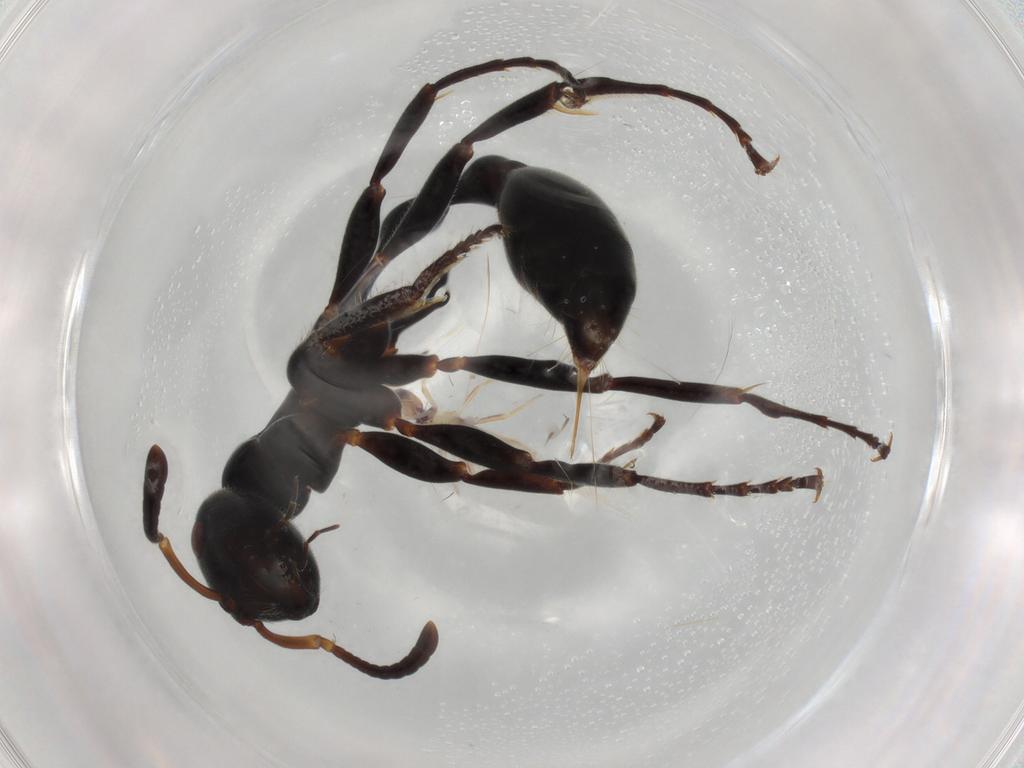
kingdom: Animalia
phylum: Arthropoda
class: Insecta
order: Hymenoptera
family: Formicidae
